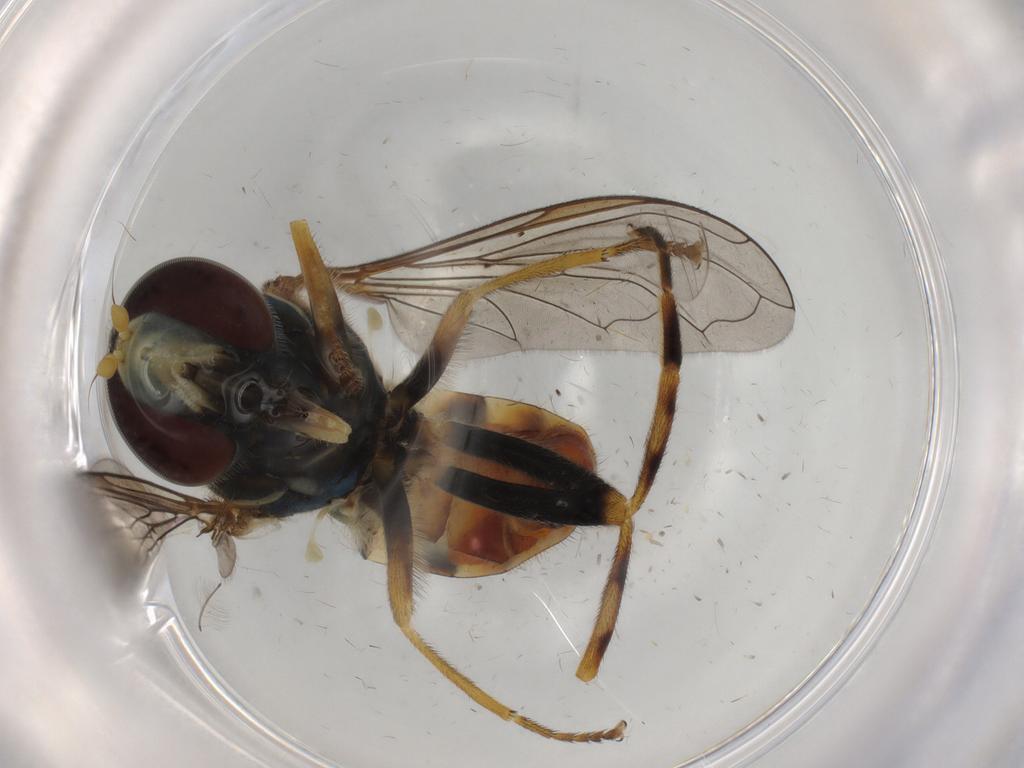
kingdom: Animalia
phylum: Arthropoda
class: Insecta
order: Diptera
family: Syrphidae
